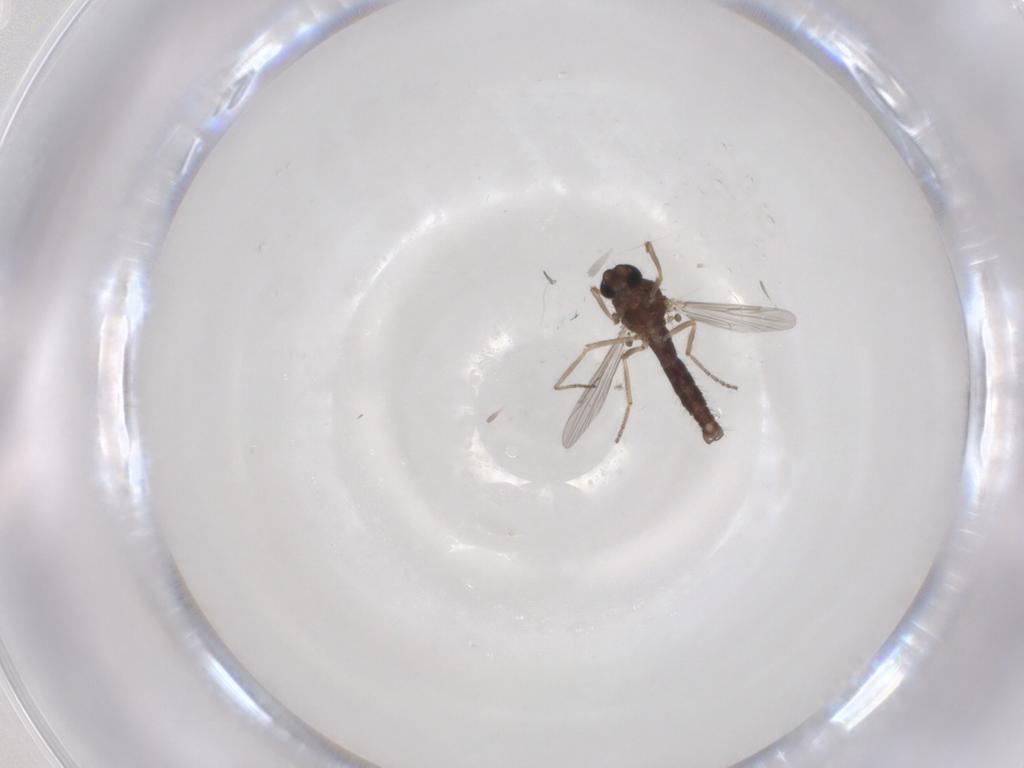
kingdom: Animalia
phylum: Arthropoda
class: Insecta
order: Diptera
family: Ceratopogonidae
